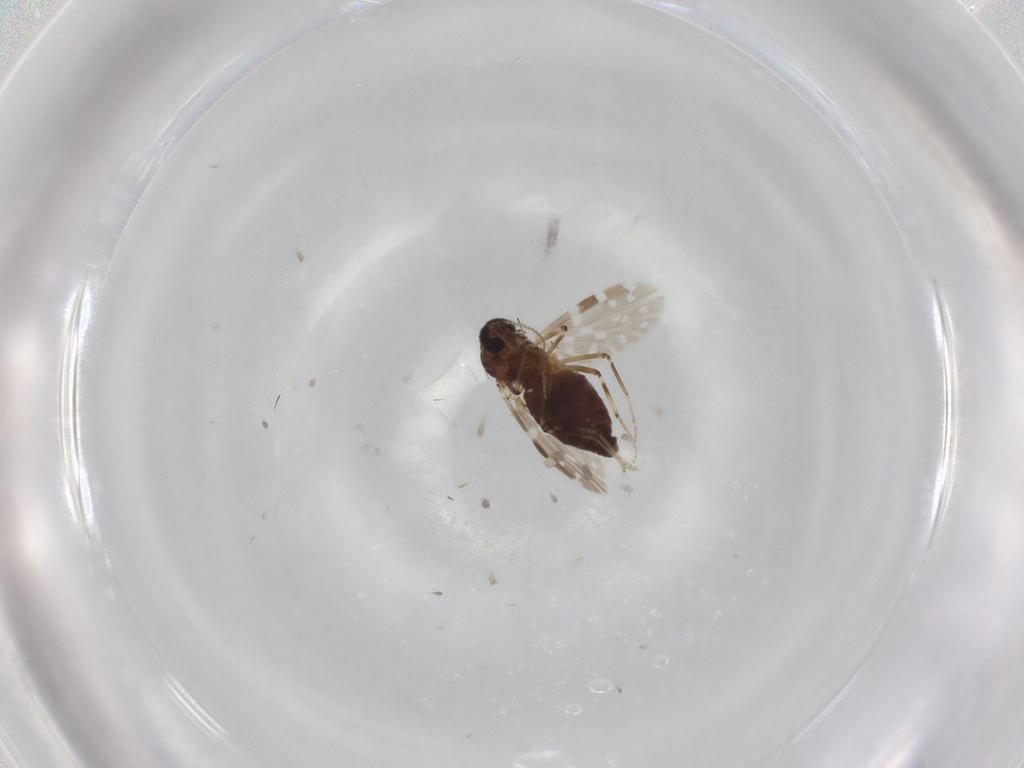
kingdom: Animalia
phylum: Arthropoda
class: Insecta
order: Diptera
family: Ceratopogonidae
